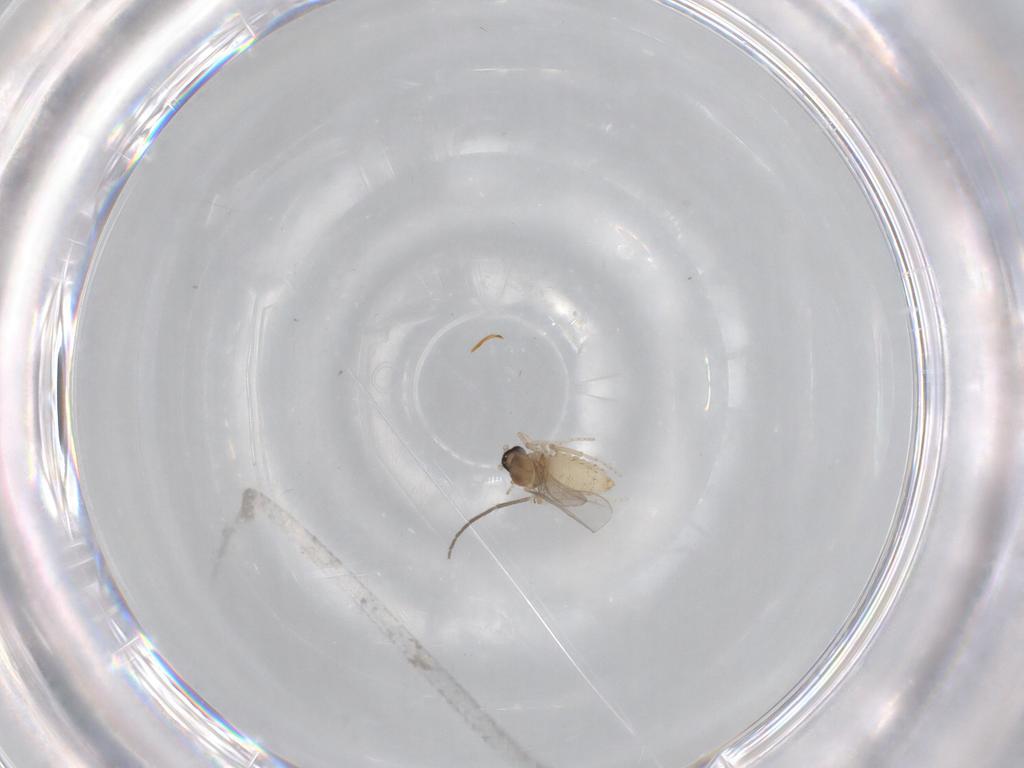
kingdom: Animalia
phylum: Arthropoda
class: Insecta
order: Diptera
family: Chironomidae
